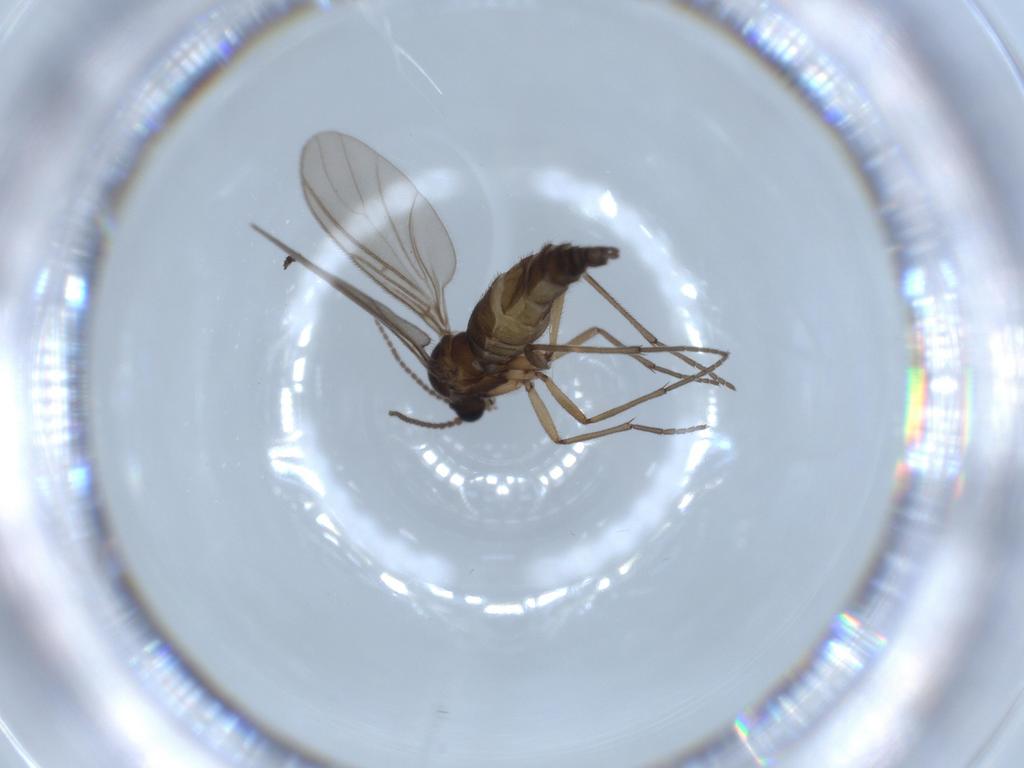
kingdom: Animalia
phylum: Arthropoda
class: Insecta
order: Diptera
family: Sciaridae
